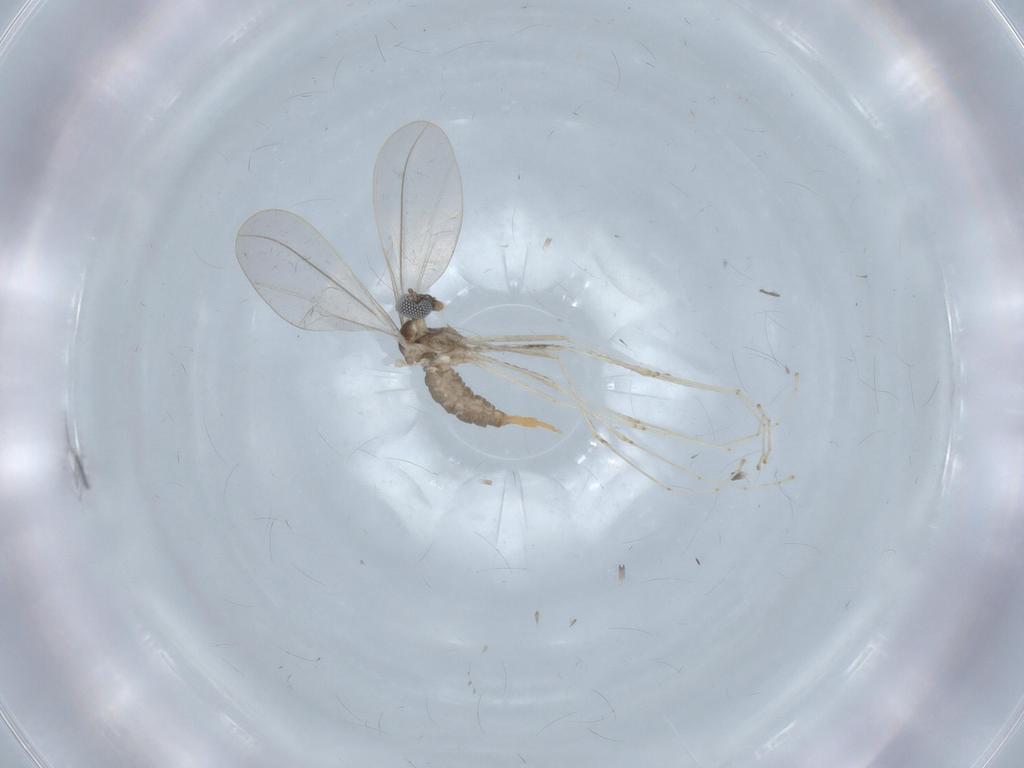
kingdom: Animalia
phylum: Arthropoda
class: Insecta
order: Diptera
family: Cecidomyiidae
